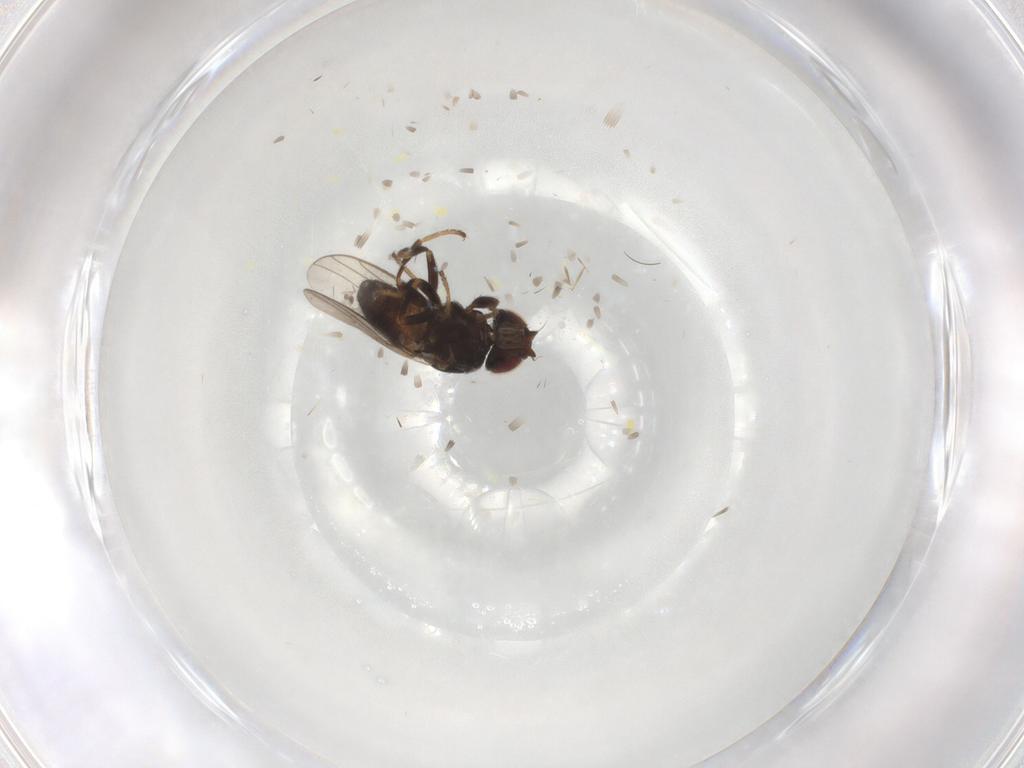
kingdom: Animalia
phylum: Arthropoda
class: Insecta
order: Diptera
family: Chloropidae
